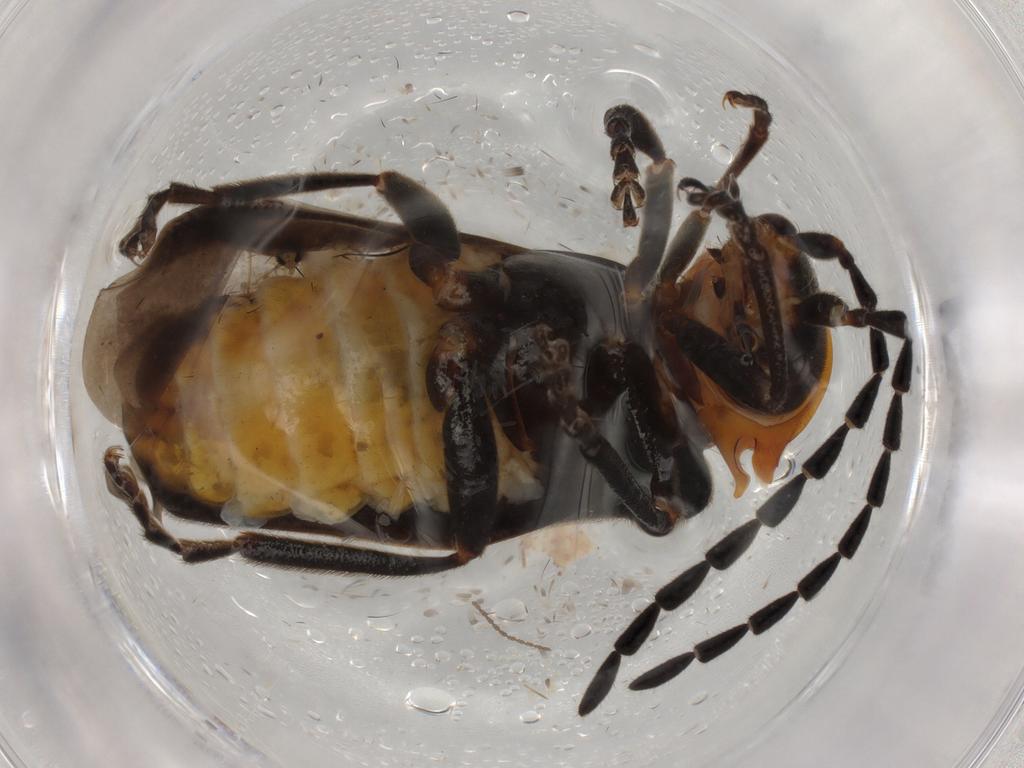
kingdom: Animalia
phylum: Arthropoda
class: Insecta
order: Coleoptera
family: Cantharidae
